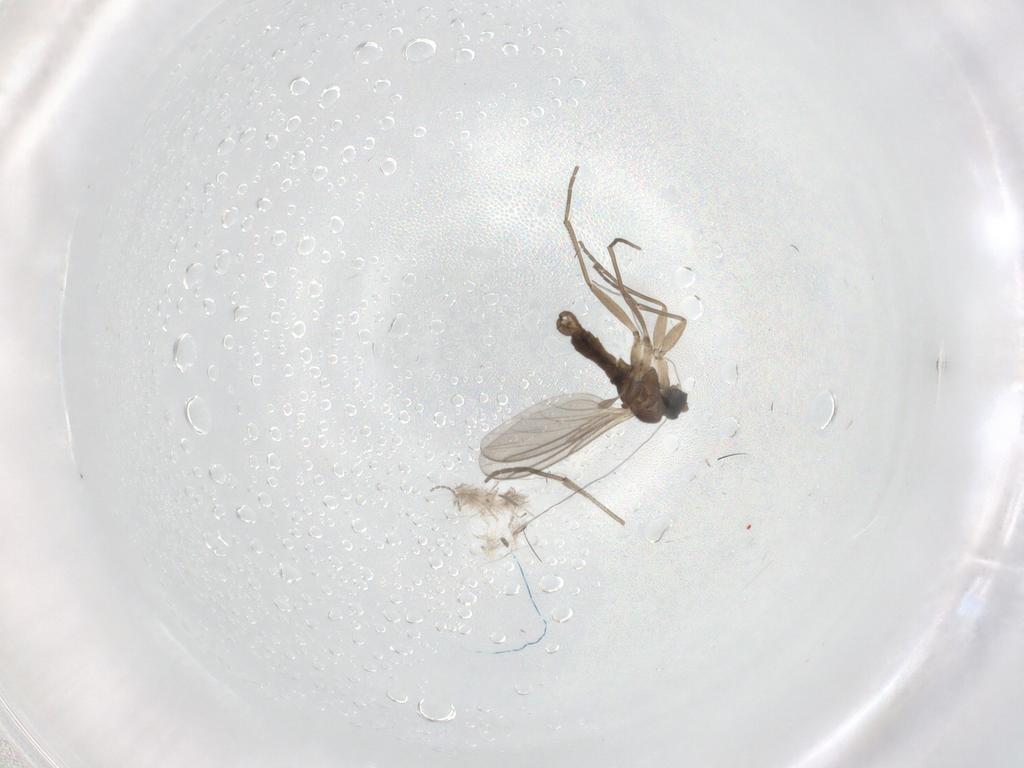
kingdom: Animalia
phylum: Arthropoda
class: Insecta
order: Diptera
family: Sciaridae
